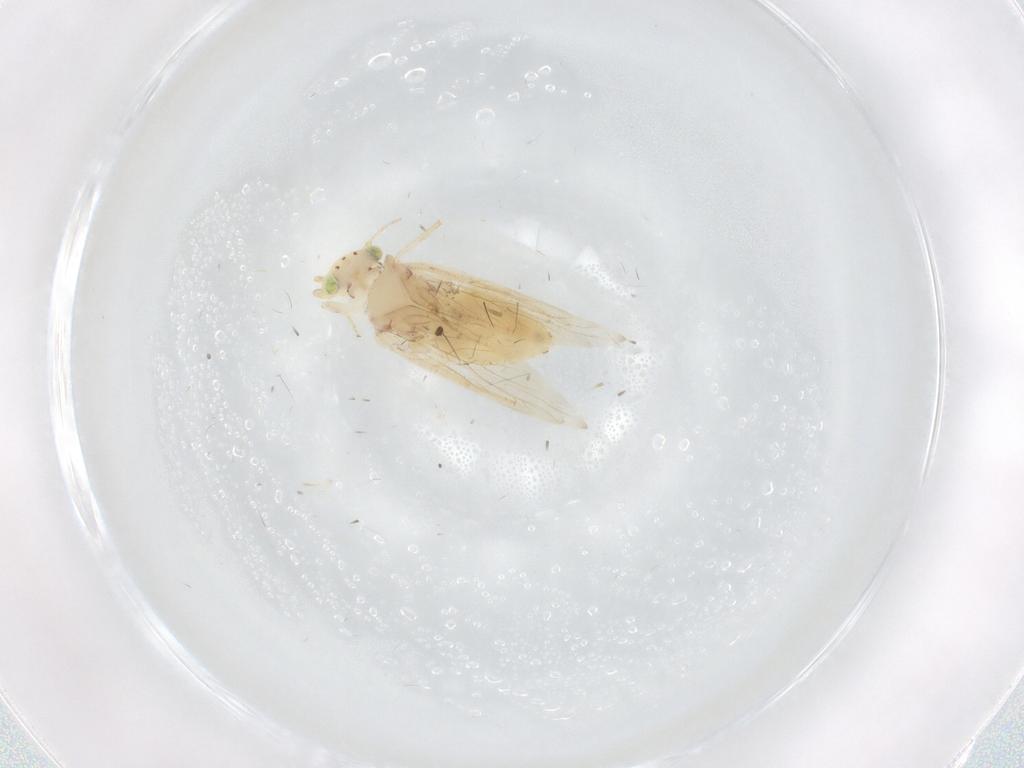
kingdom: Animalia
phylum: Arthropoda
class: Insecta
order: Psocodea
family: Lepidopsocidae
